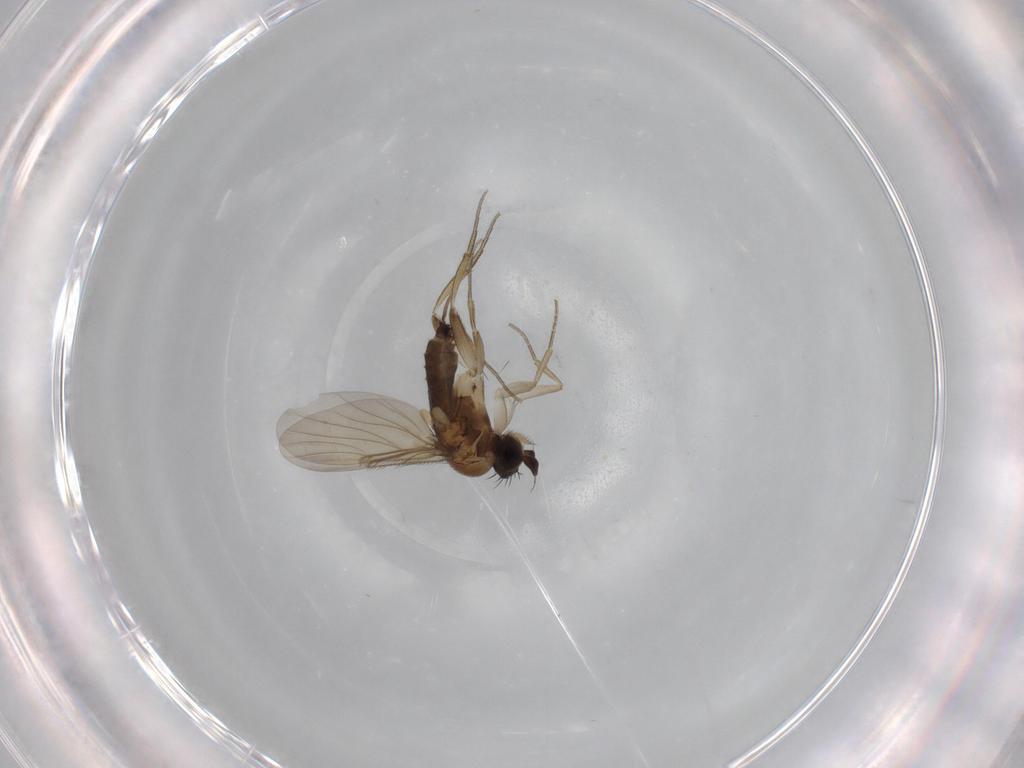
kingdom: Animalia
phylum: Arthropoda
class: Insecta
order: Diptera
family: Phoridae
